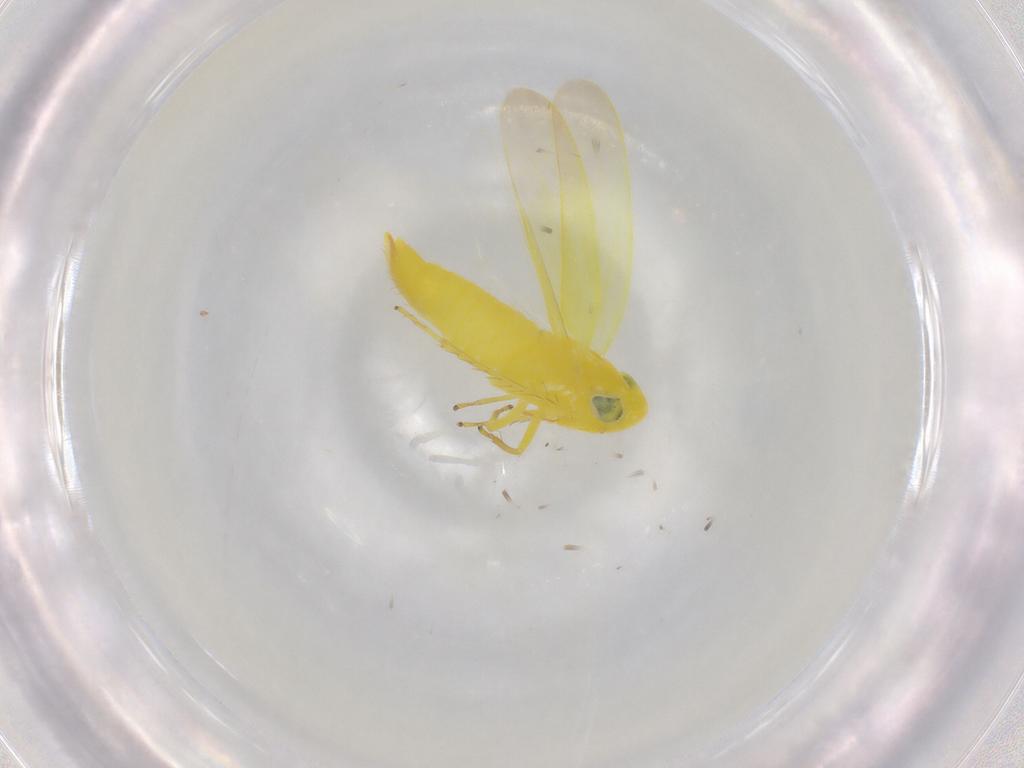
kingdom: Animalia
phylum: Arthropoda
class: Insecta
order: Hemiptera
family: Cicadellidae
